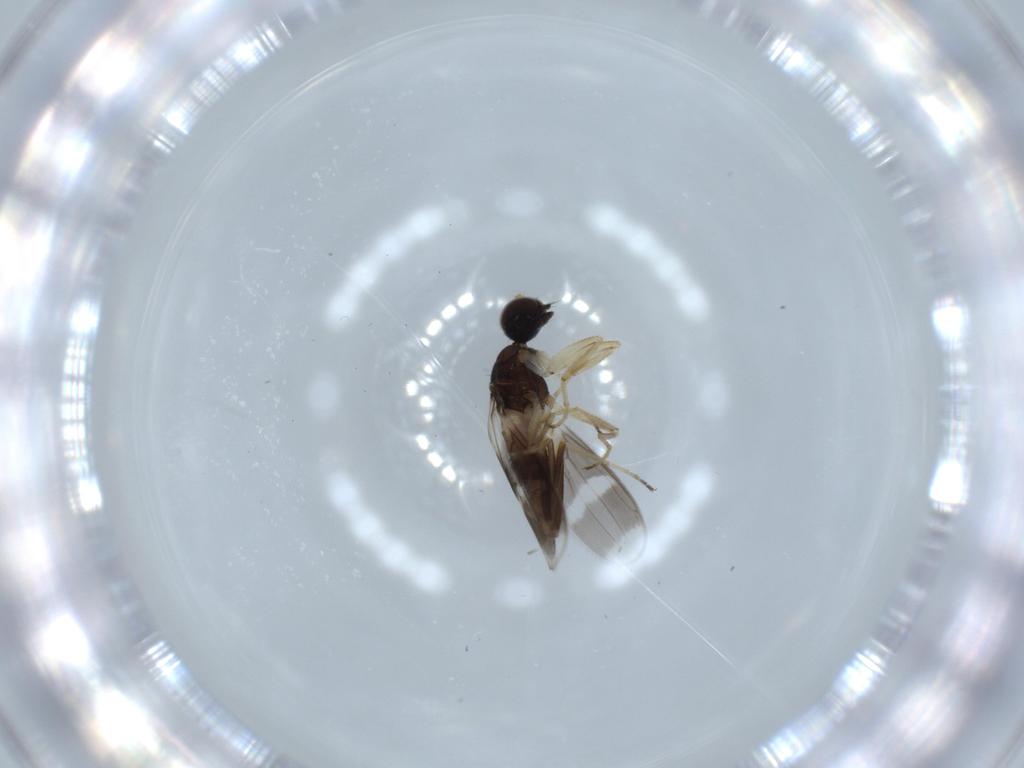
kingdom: Animalia
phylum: Arthropoda
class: Insecta
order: Diptera
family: Hybotidae
